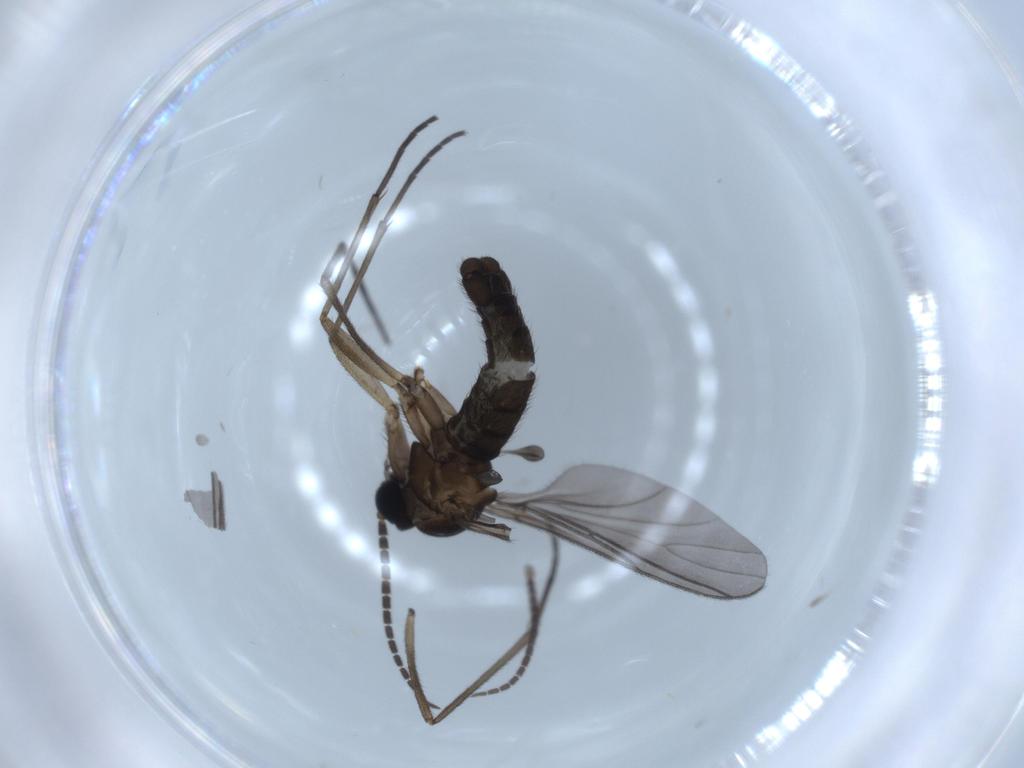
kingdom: Animalia
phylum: Arthropoda
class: Insecta
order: Diptera
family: Sciaridae
